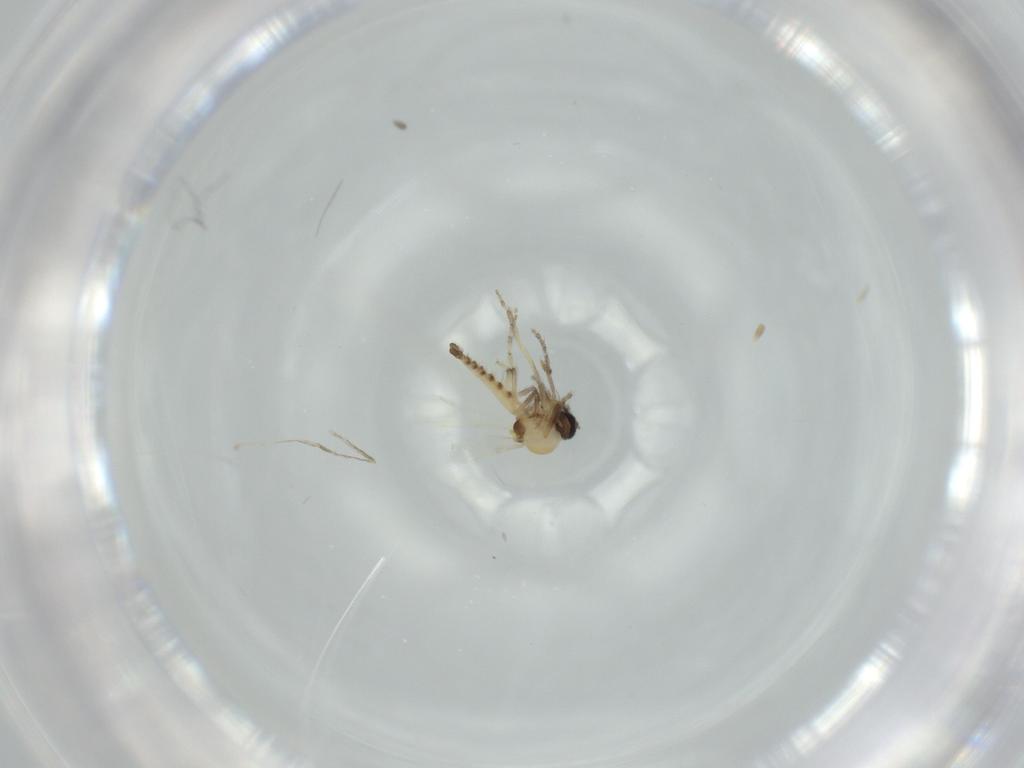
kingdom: Animalia
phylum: Arthropoda
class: Insecta
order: Diptera
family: Ceratopogonidae
